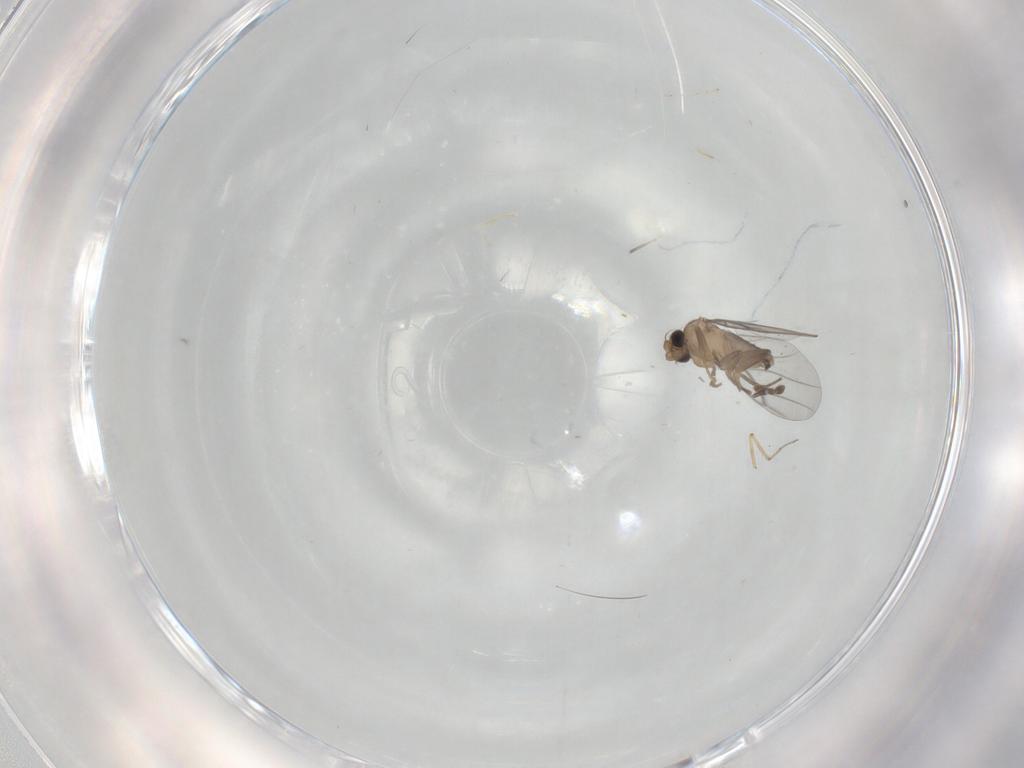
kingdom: Animalia
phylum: Arthropoda
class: Insecta
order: Diptera
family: Ceratopogonidae
